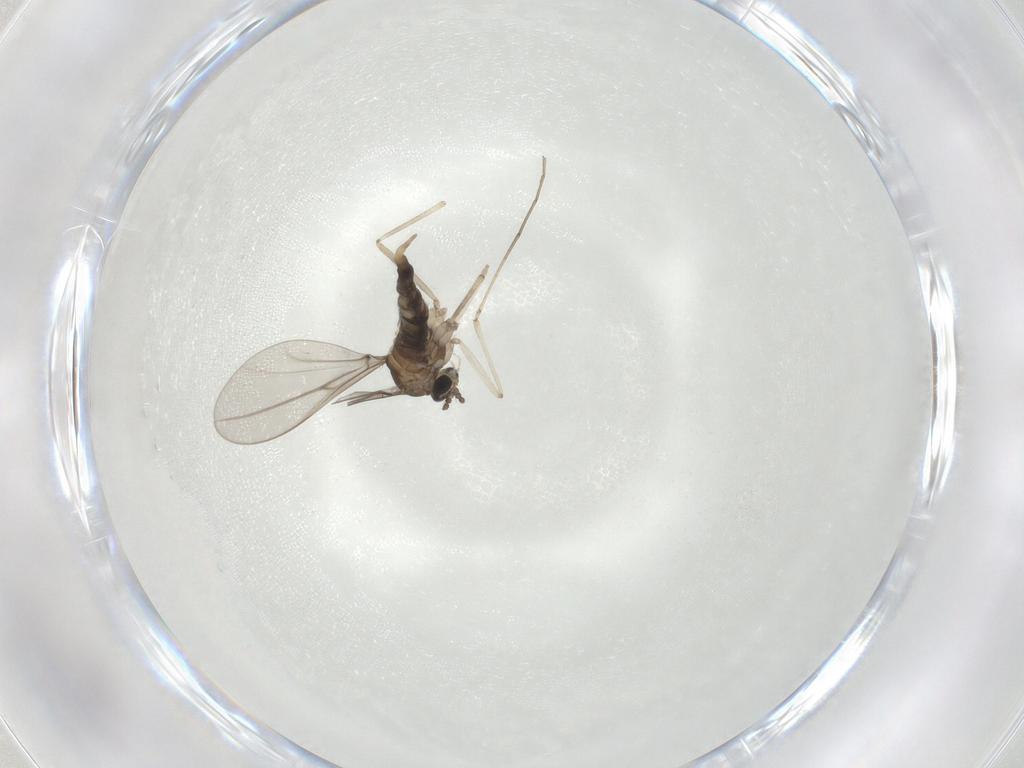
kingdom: Animalia
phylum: Arthropoda
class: Insecta
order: Diptera
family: Cecidomyiidae
